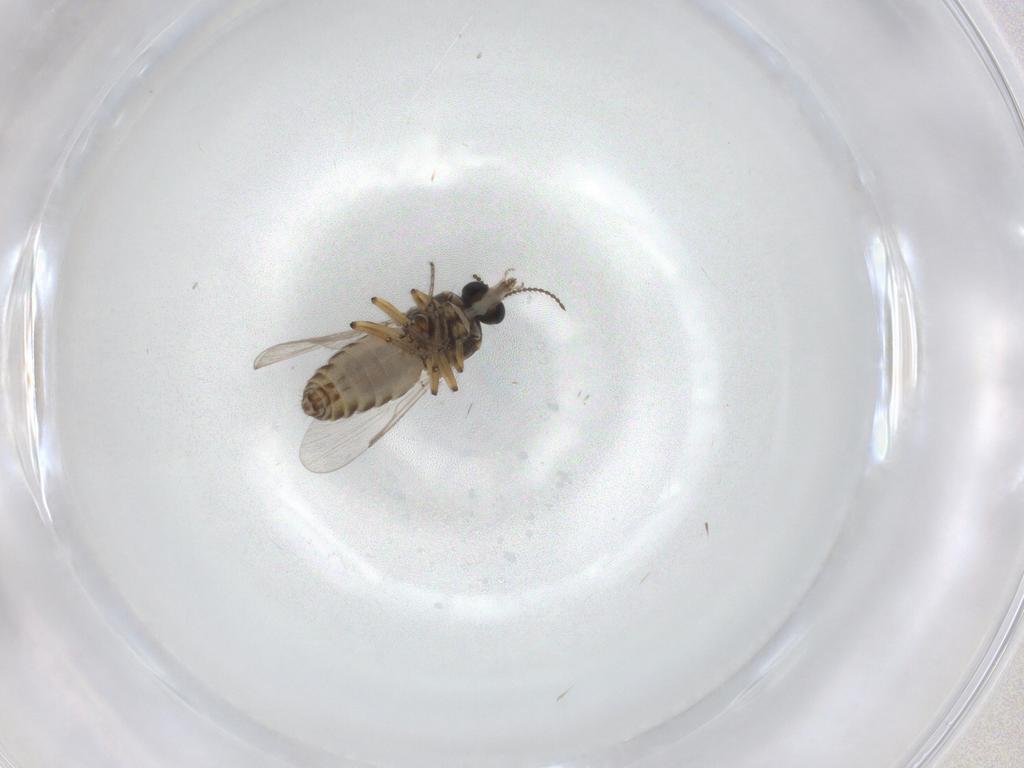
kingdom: Animalia
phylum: Arthropoda
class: Insecta
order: Diptera
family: Ceratopogonidae
